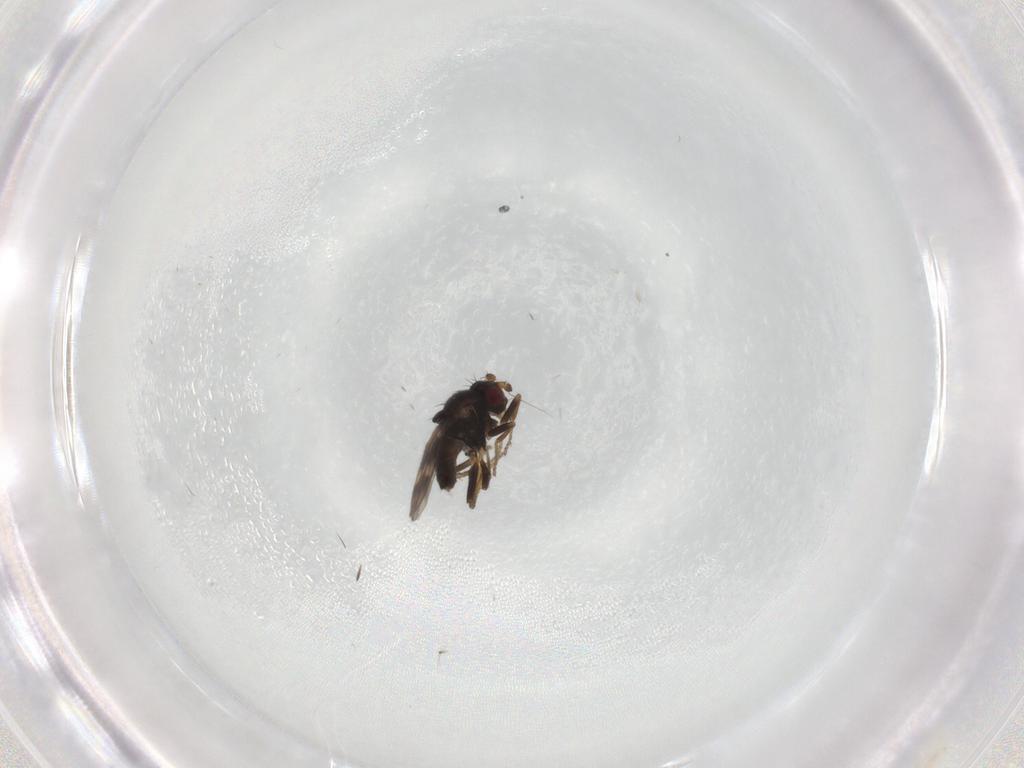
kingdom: Animalia
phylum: Arthropoda
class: Insecta
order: Diptera
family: Sphaeroceridae
